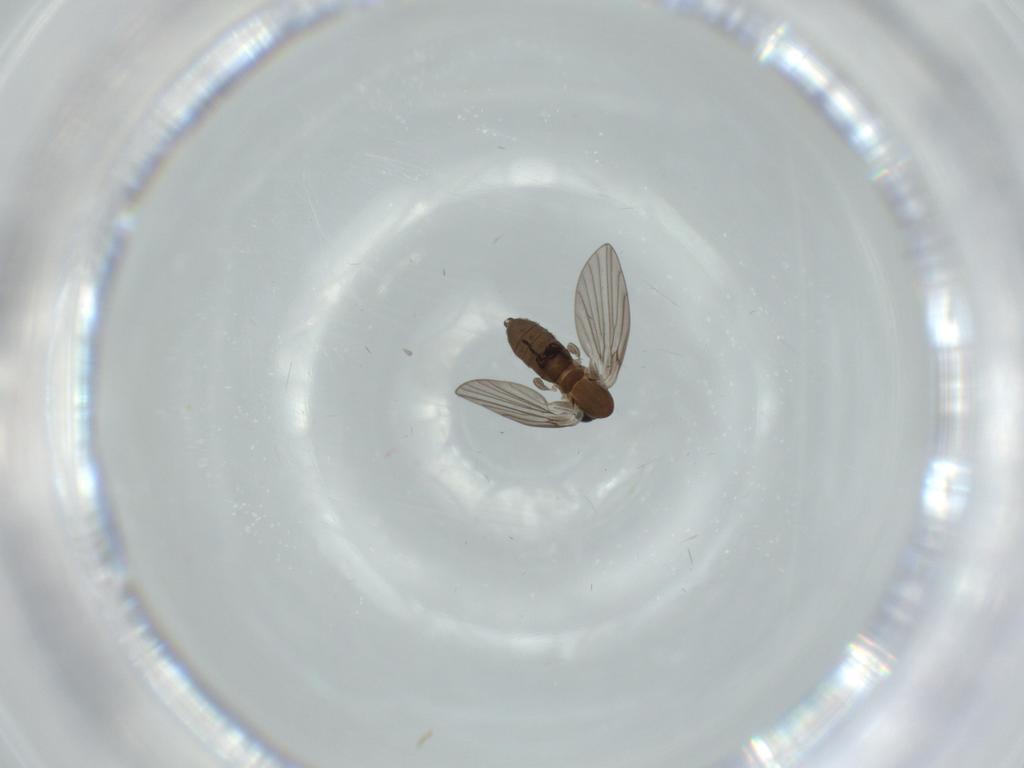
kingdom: Animalia
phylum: Arthropoda
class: Insecta
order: Diptera
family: Psychodidae
